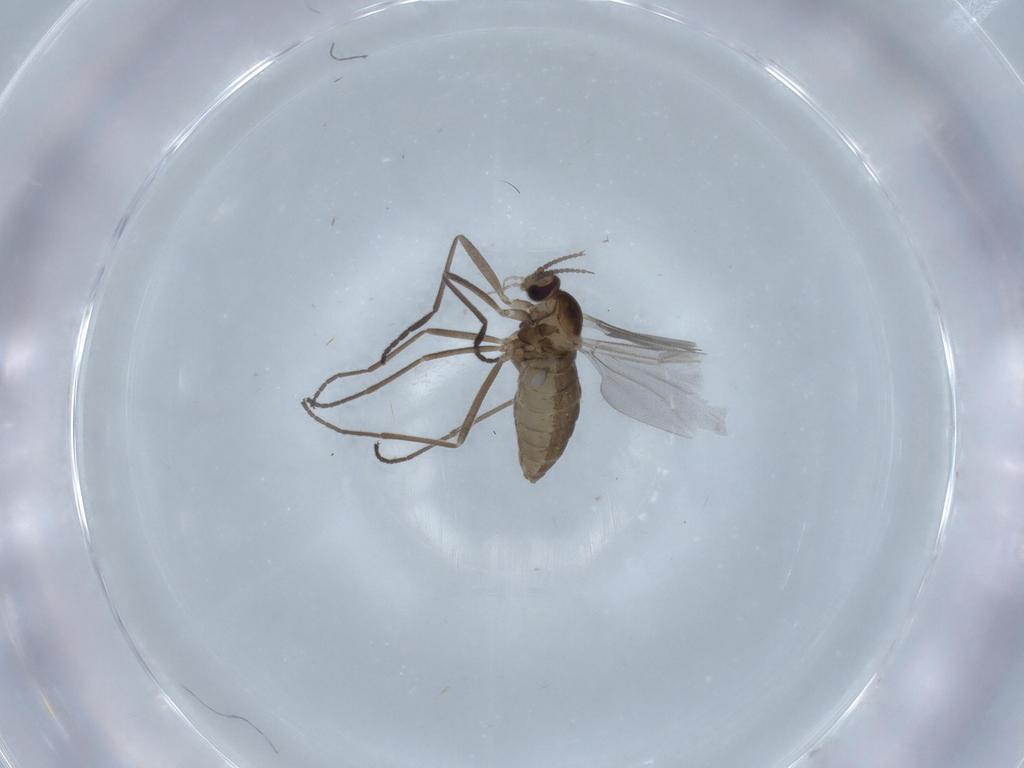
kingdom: Animalia
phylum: Arthropoda
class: Insecta
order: Diptera
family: Cecidomyiidae
